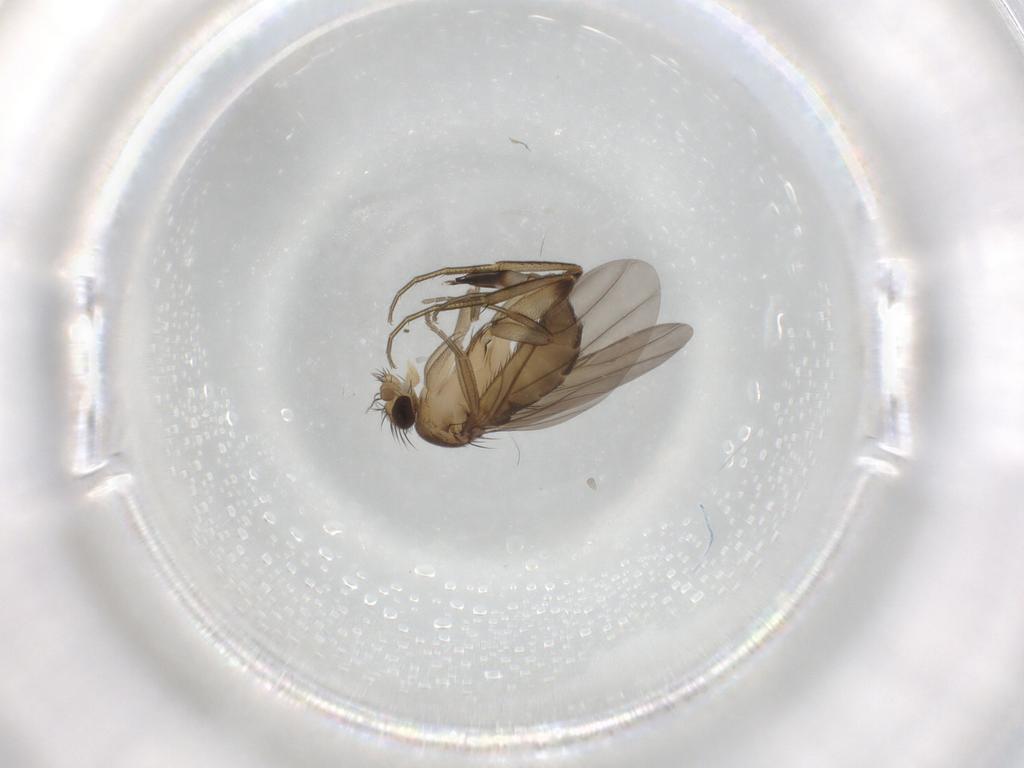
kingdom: Animalia
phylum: Arthropoda
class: Insecta
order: Diptera
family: Phoridae
